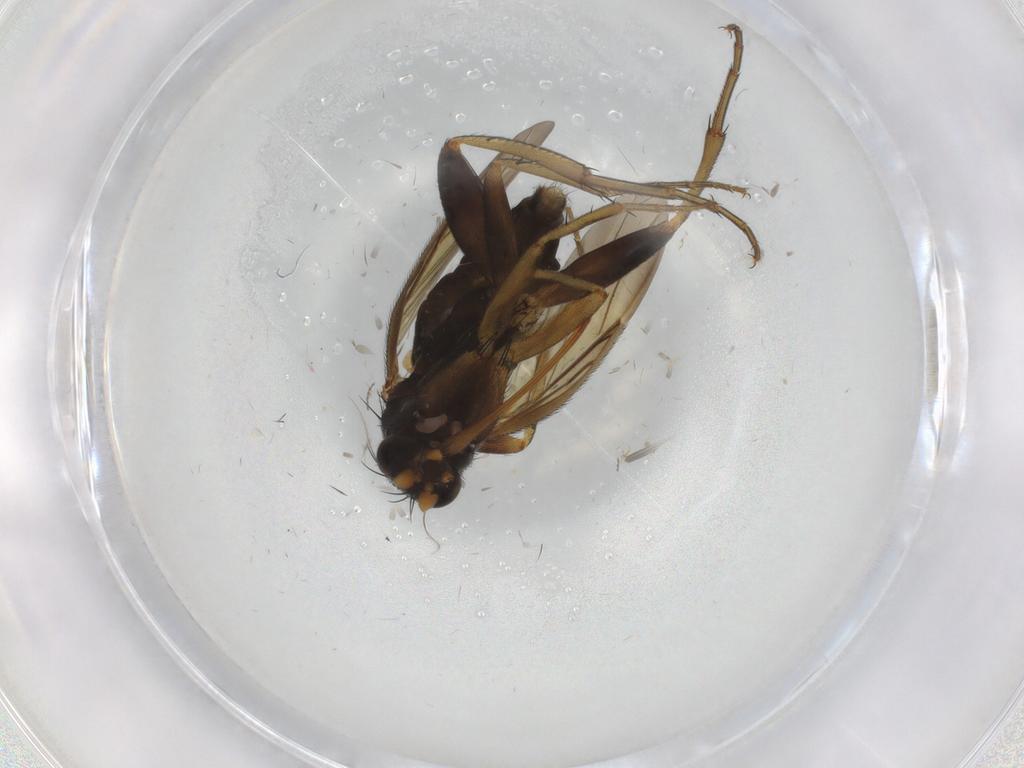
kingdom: Animalia
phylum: Arthropoda
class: Insecta
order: Diptera
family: Phoridae
